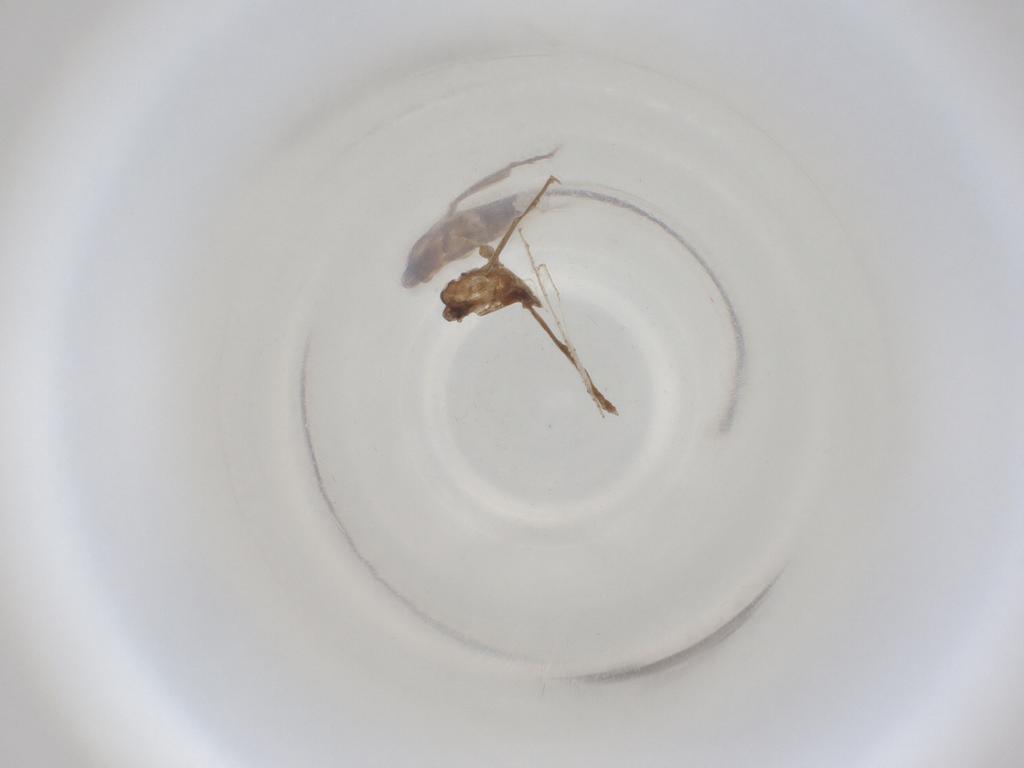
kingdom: Animalia
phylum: Arthropoda
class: Insecta
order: Diptera
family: Cecidomyiidae
